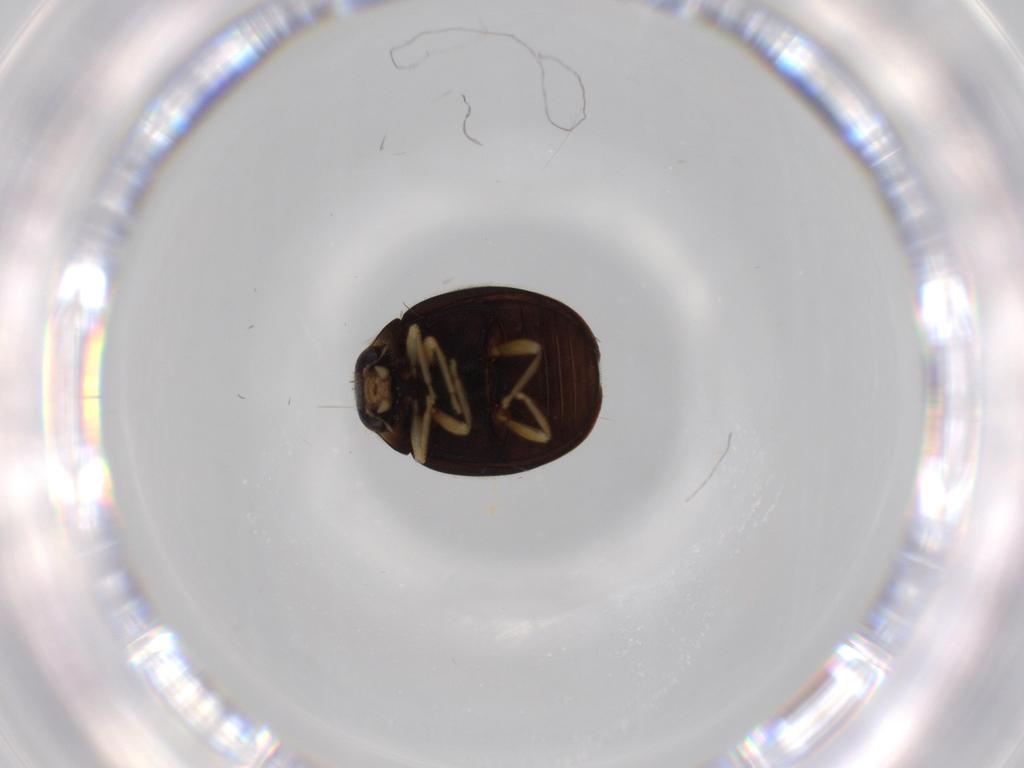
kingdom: Animalia
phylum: Arthropoda
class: Insecta
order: Coleoptera
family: Coccinellidae
